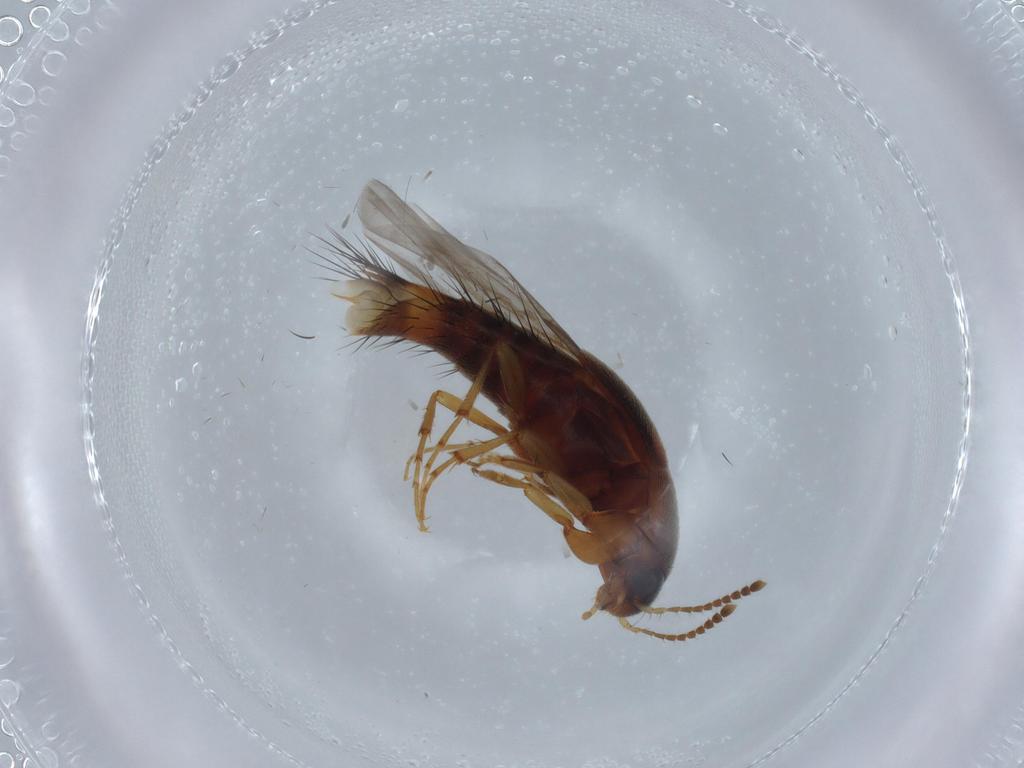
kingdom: Animalia
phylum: Arthropoda
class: Insecta
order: Coleoptera
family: Staphylinidae
